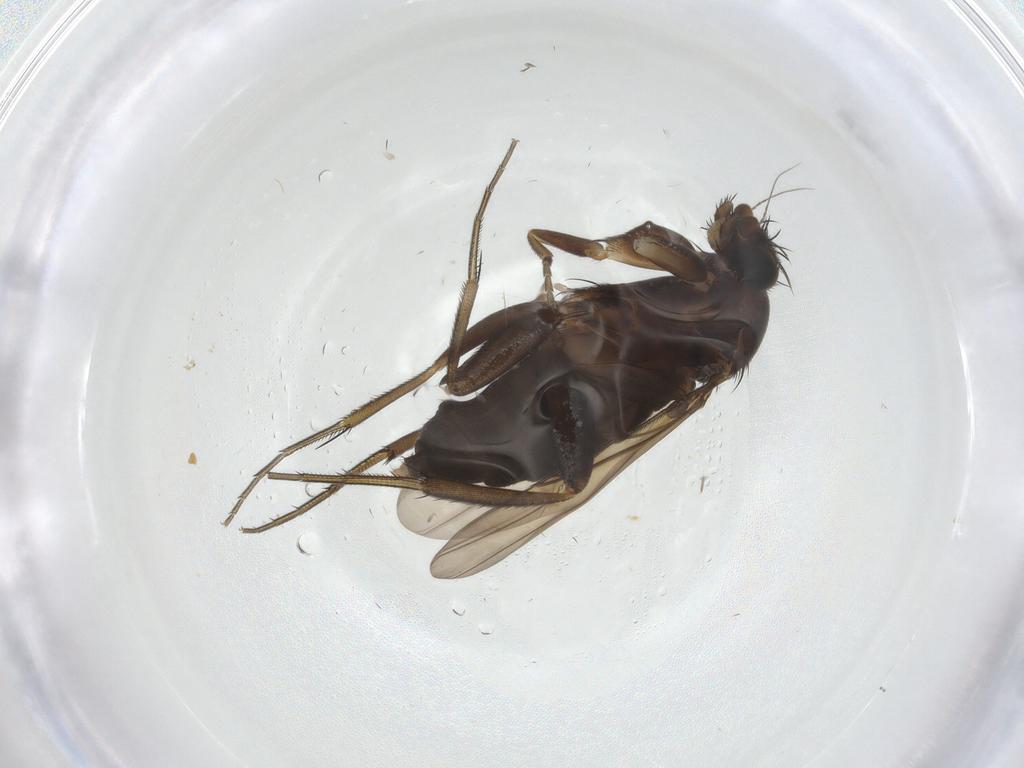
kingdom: Animalia
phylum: Arthropoda
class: Insecta
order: Diptera
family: Phoridae
